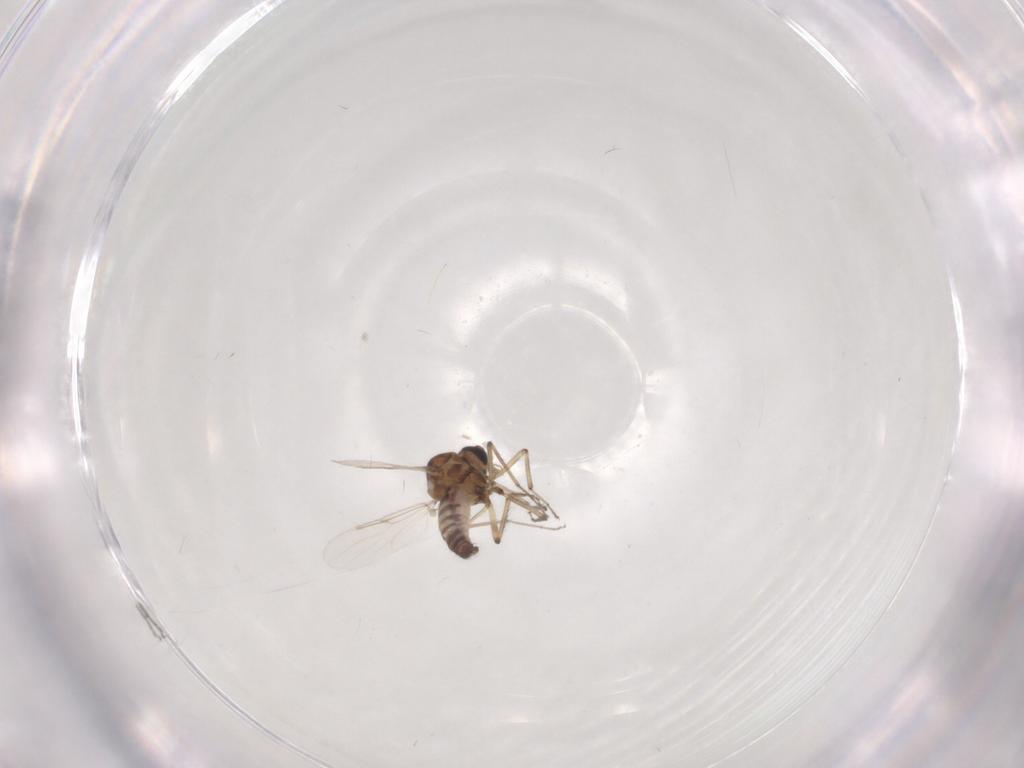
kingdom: Animalia
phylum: Arthropoda
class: Insecta
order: Diptera
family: Ceratopogonidae
